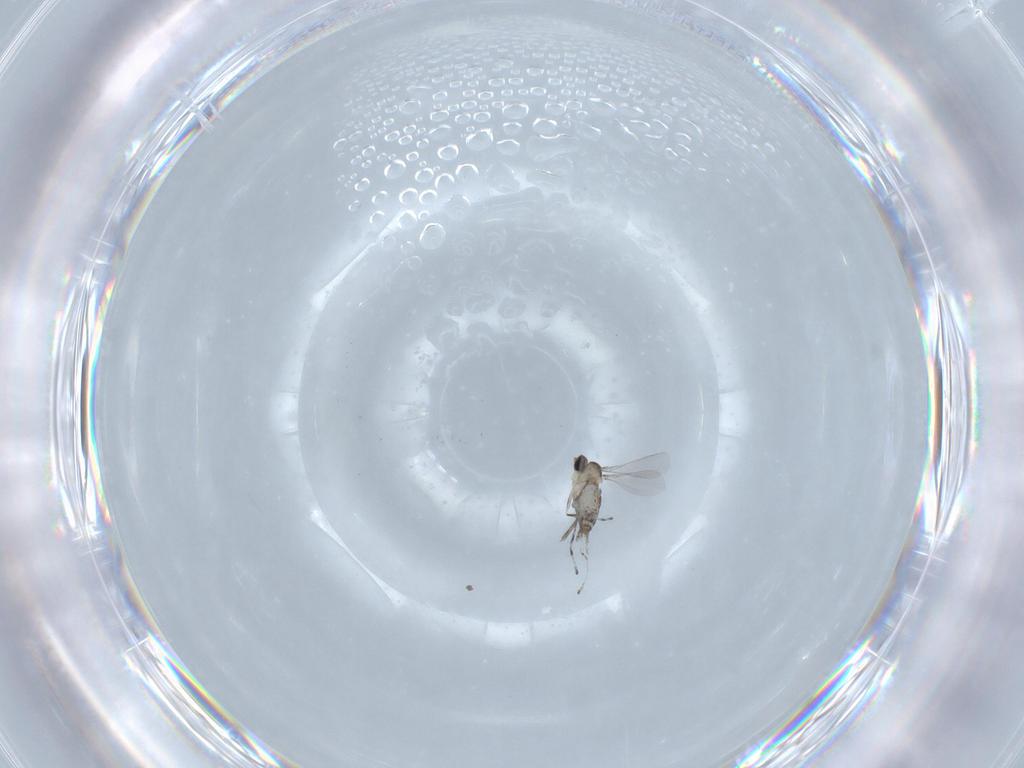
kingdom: Animalia
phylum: Arthropoda
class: Insecta
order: Diptera
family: Cecidomyiidae
